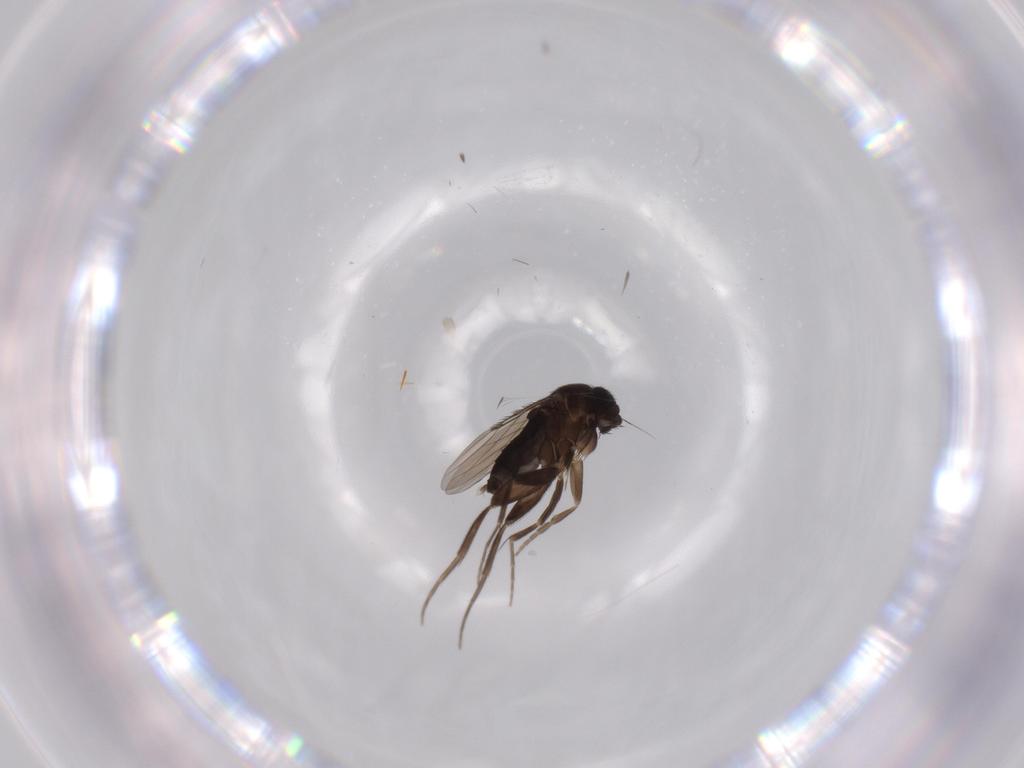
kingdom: Animalia
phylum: Arthropoda
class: Insecta
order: Diptera
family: Phoridae
